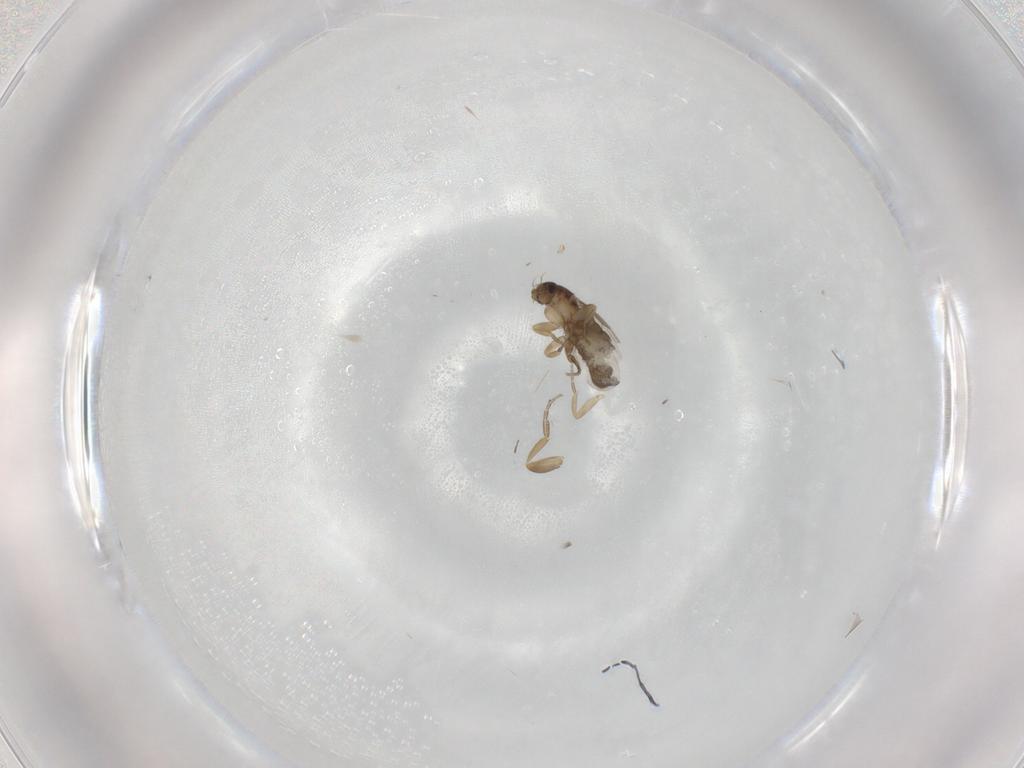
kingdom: Animalia
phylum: Arthropoda
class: Insecta
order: Diptera
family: Phoridae
